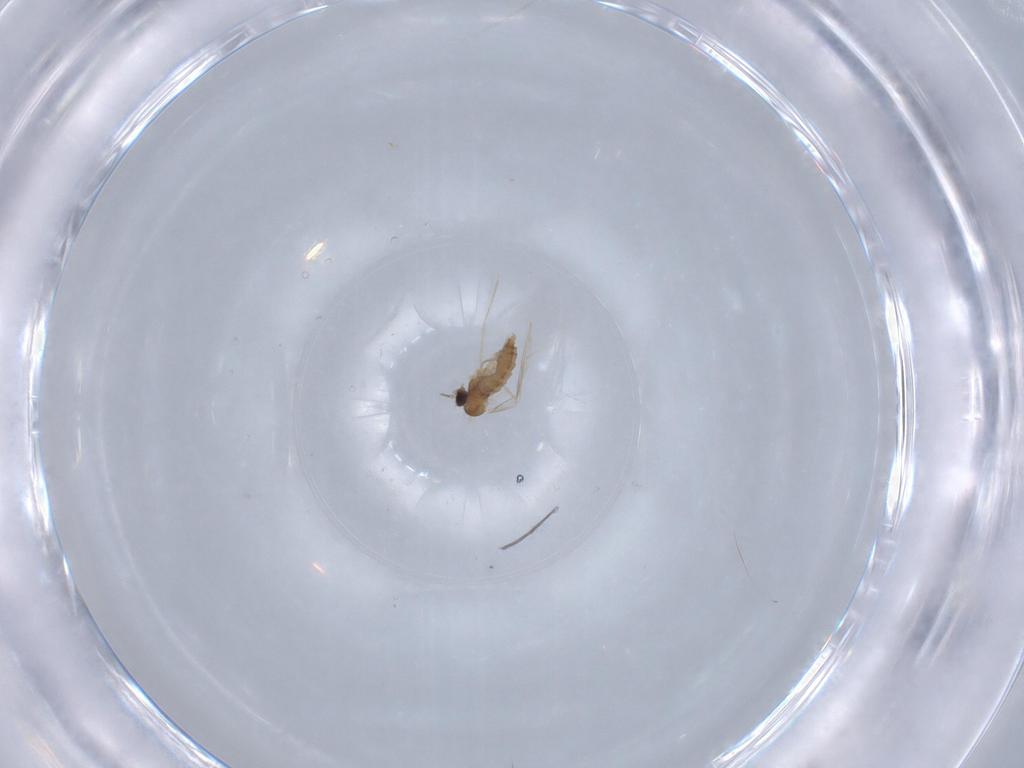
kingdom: Animalia
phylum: Arthropoda
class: Insecta
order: Diptera
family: Cecidomyiidae
